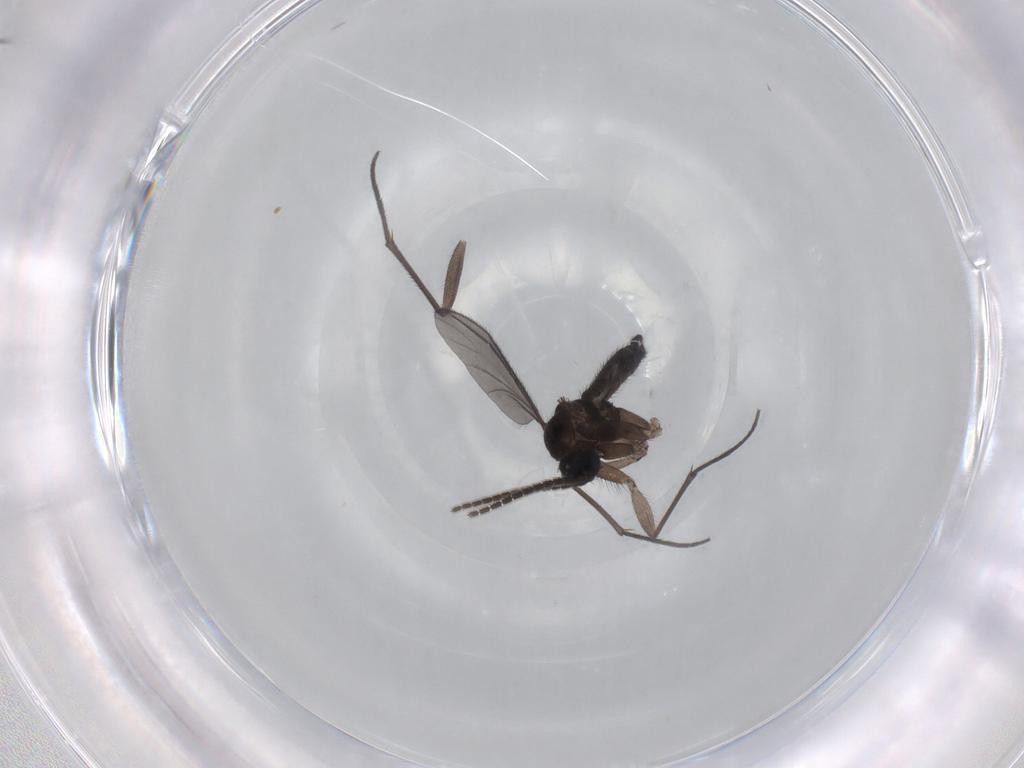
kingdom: Animalia
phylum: Arthropoda
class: Insecta
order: Diptera
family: Sciaridae
